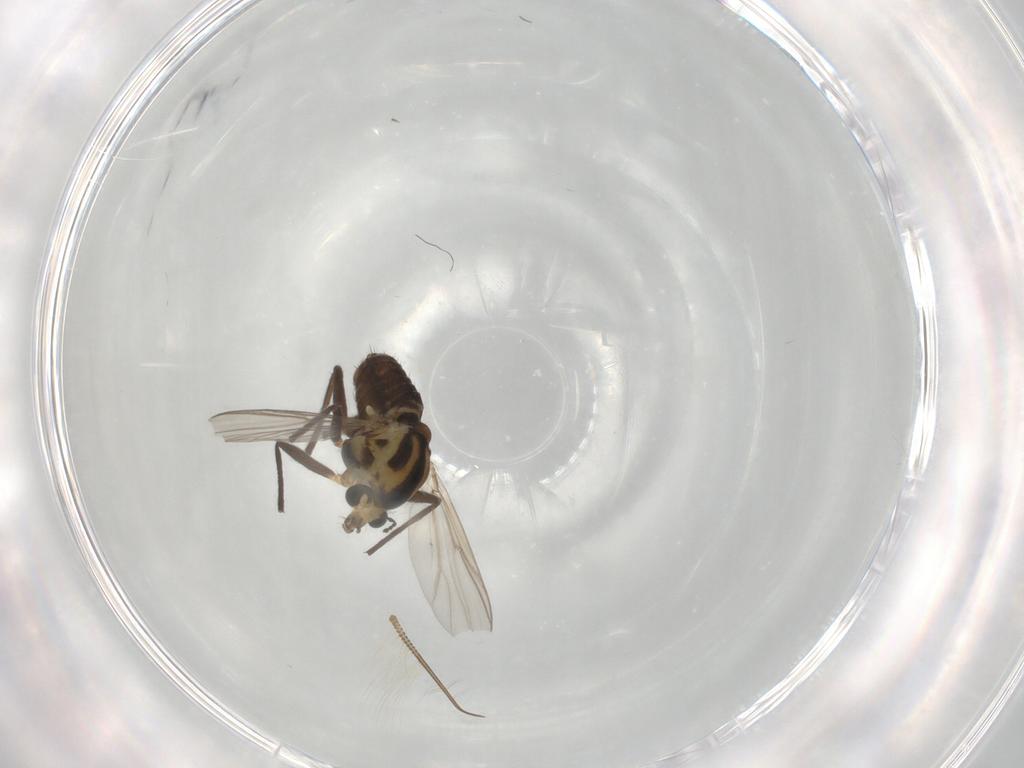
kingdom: Animalia
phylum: Arthropoda
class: Insecta
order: Diptera
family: Chironomidae
